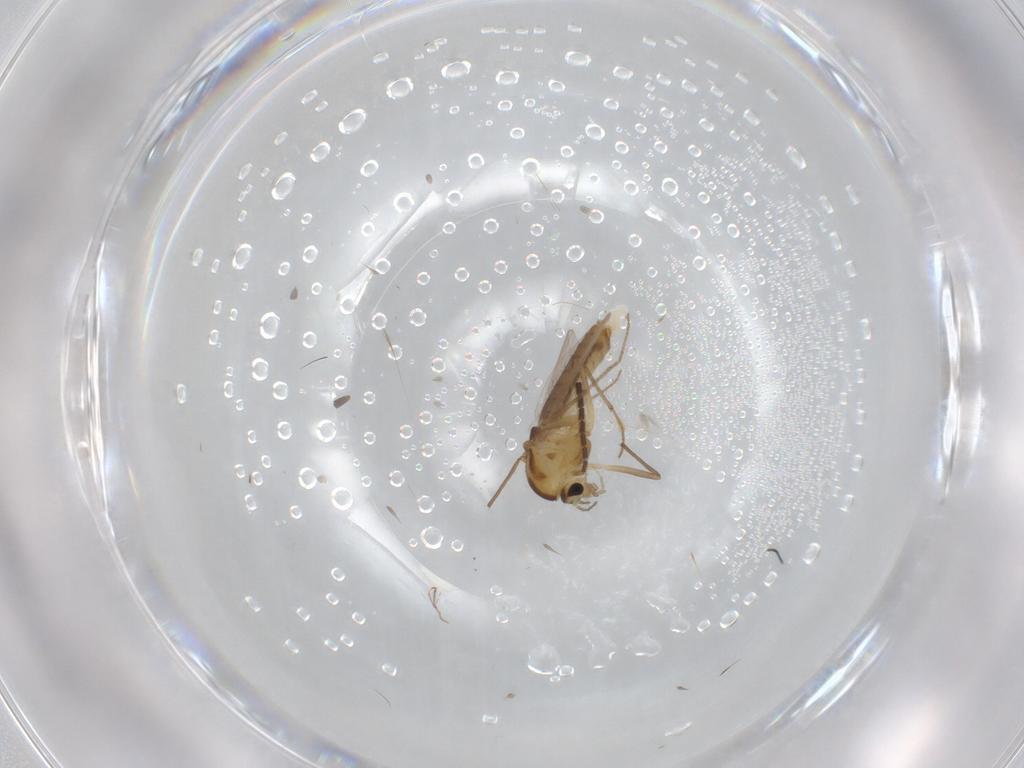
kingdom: Animalia
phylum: Arthropoda
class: Insecta
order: Diptera
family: Chironomidae
